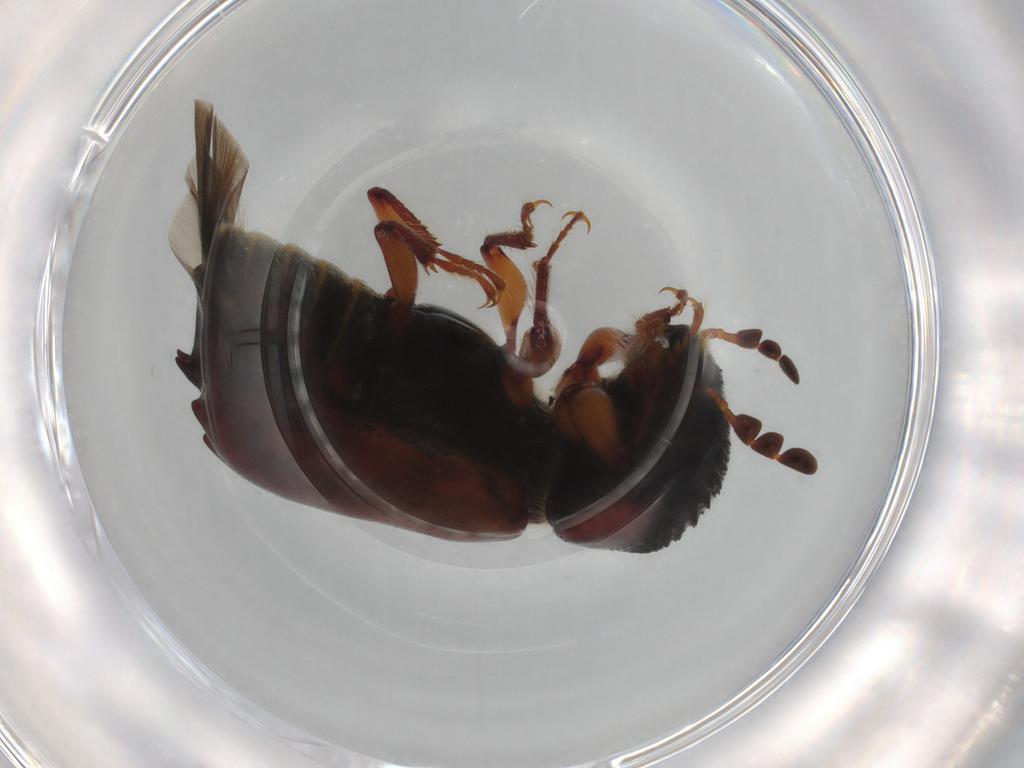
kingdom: Animalia
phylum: Arthropoda
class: Insecta
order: Coleoptera
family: Bostrichidae
